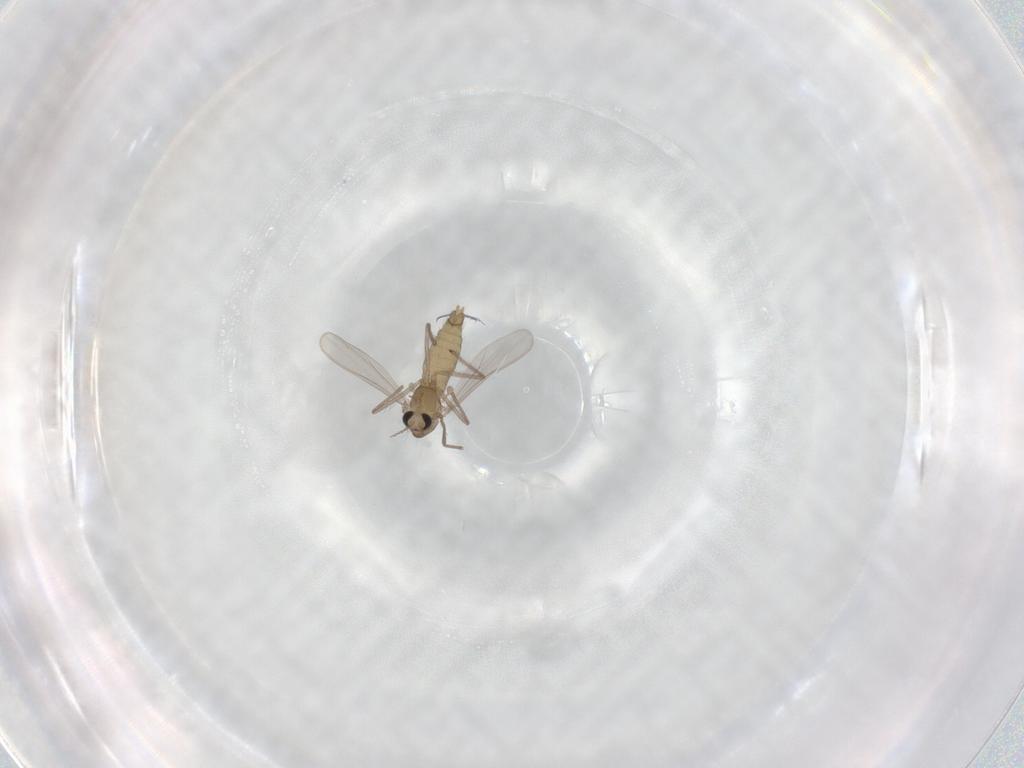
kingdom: Animalia
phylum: Arthropoda
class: Insecta
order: Diptera
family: Chironomidae
